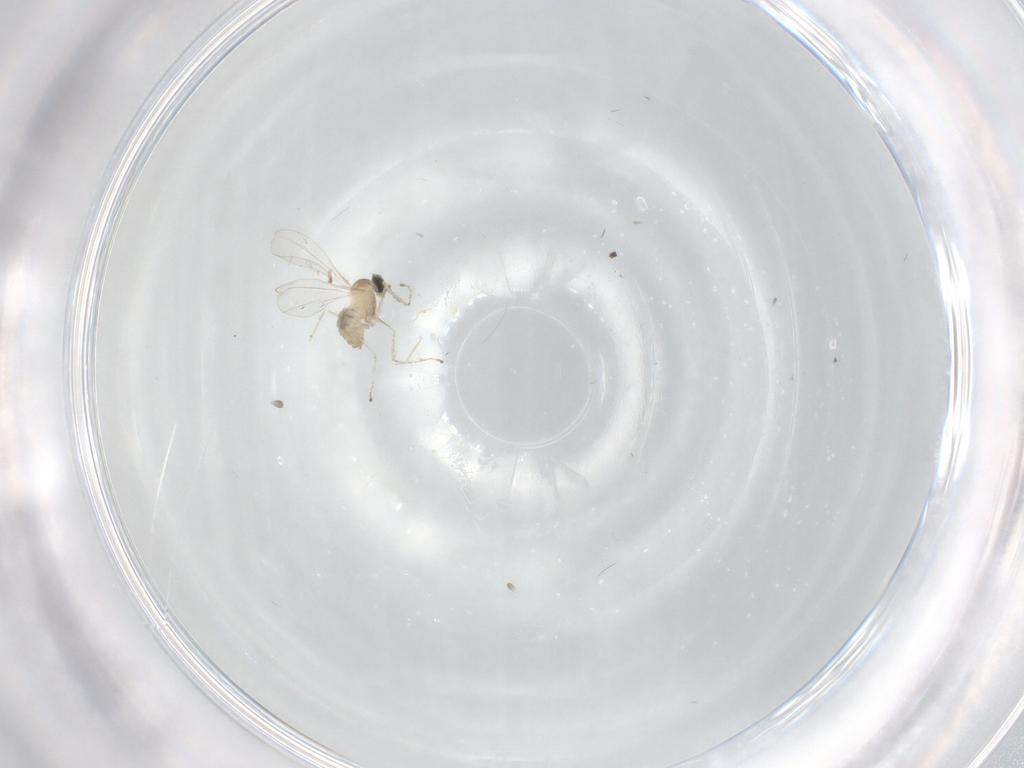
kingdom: Animalia
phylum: Arthropoda
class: Insecta
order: Diptera
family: Cecidomyiidae
